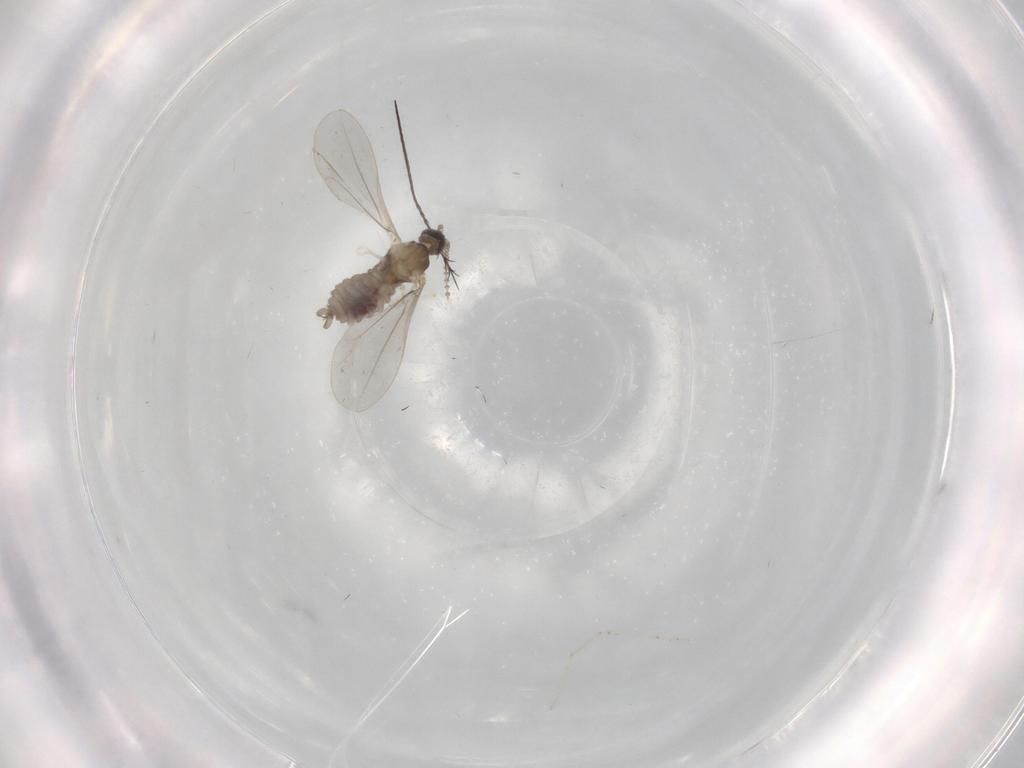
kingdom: Animalia
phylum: Arthropoda
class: Insecta
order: Diptera
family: Cecidomyiidae
